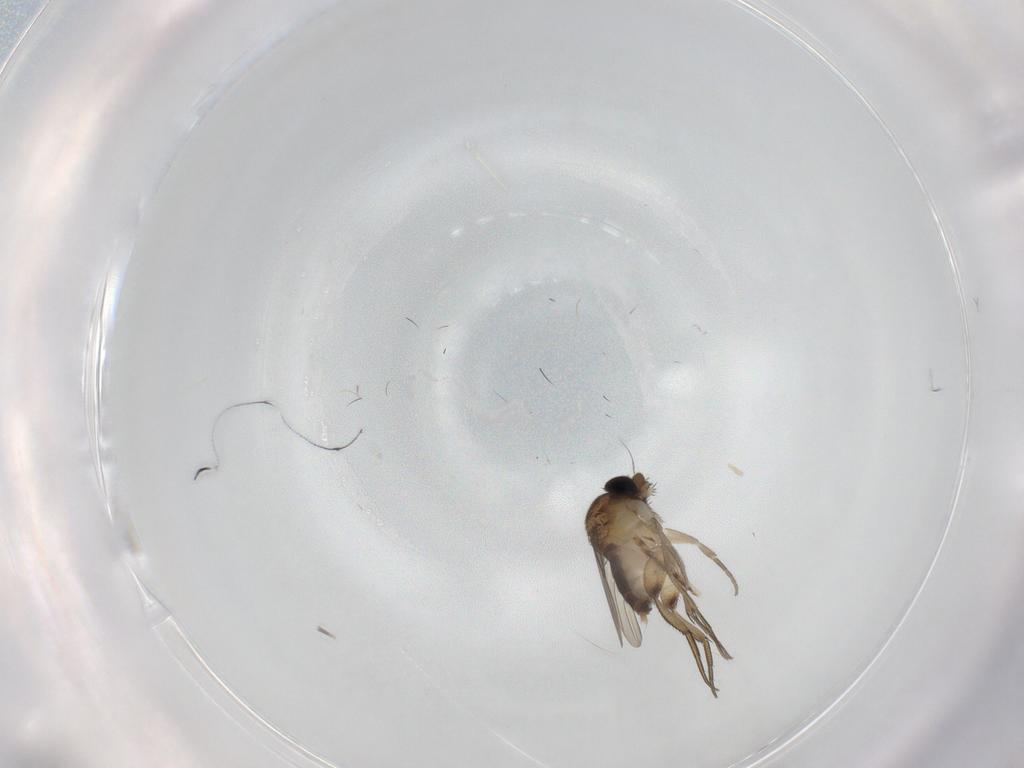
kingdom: Animalia
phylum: Arthropoda
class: Insecta
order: Diptera
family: Phoridae
